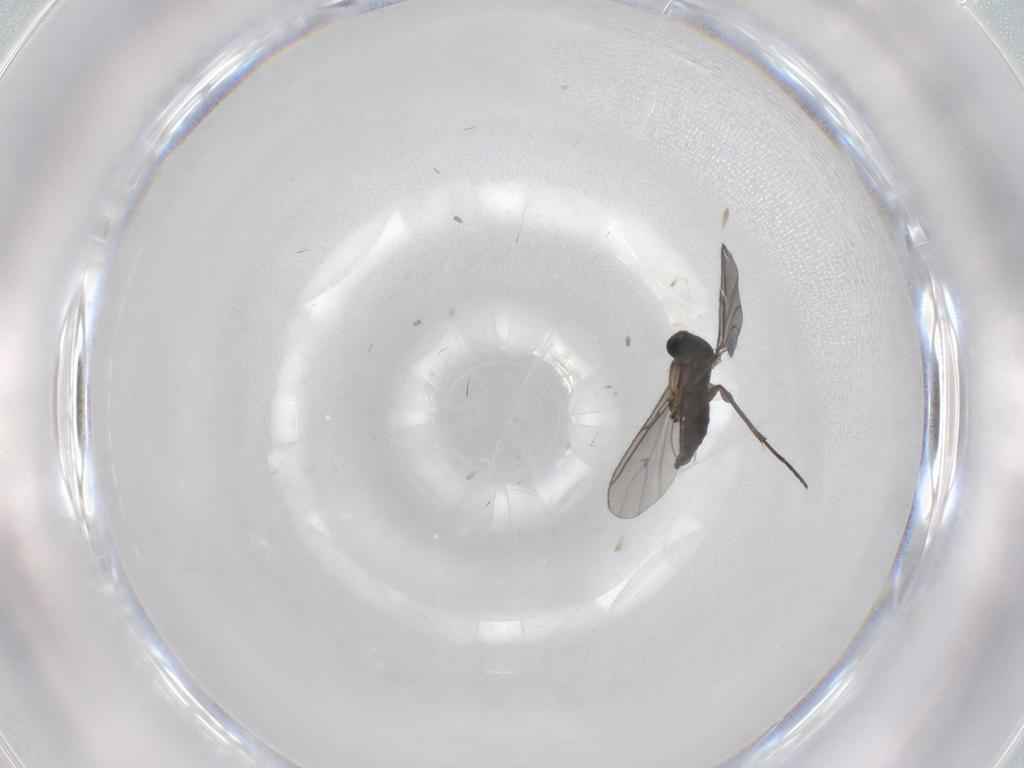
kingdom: Animalia
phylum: Arthropoda
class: Insecta
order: Diptera
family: Sciaridae
